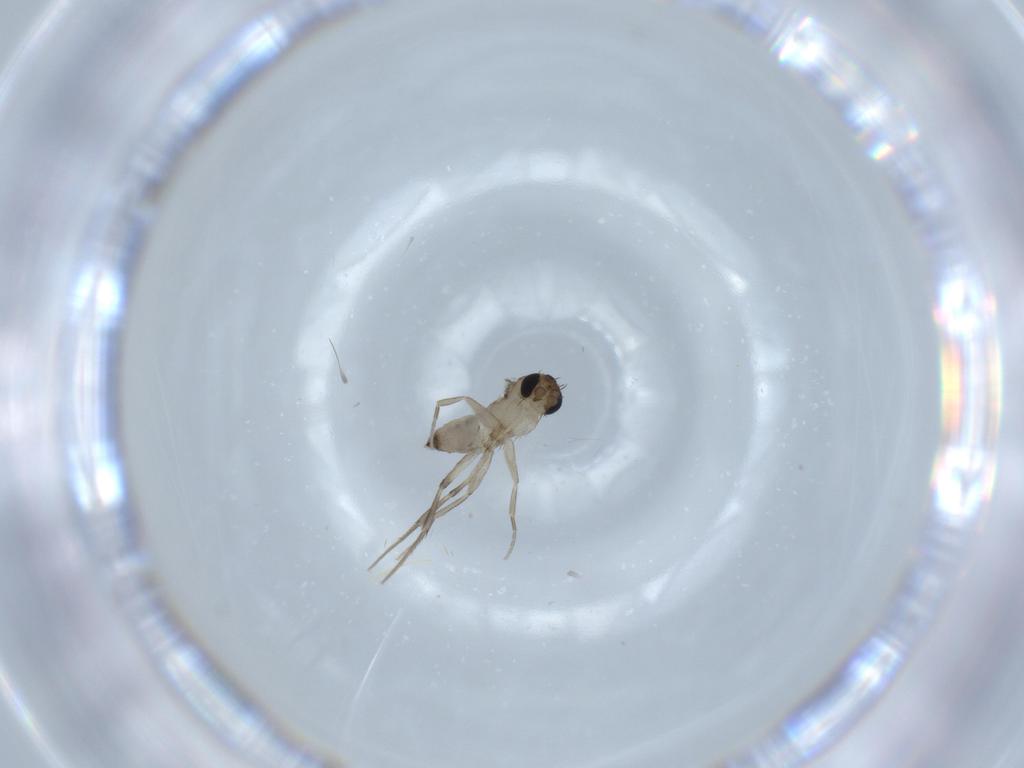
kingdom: Animalia
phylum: Arthropoda
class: Insecta
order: Diptera
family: Phoridae
